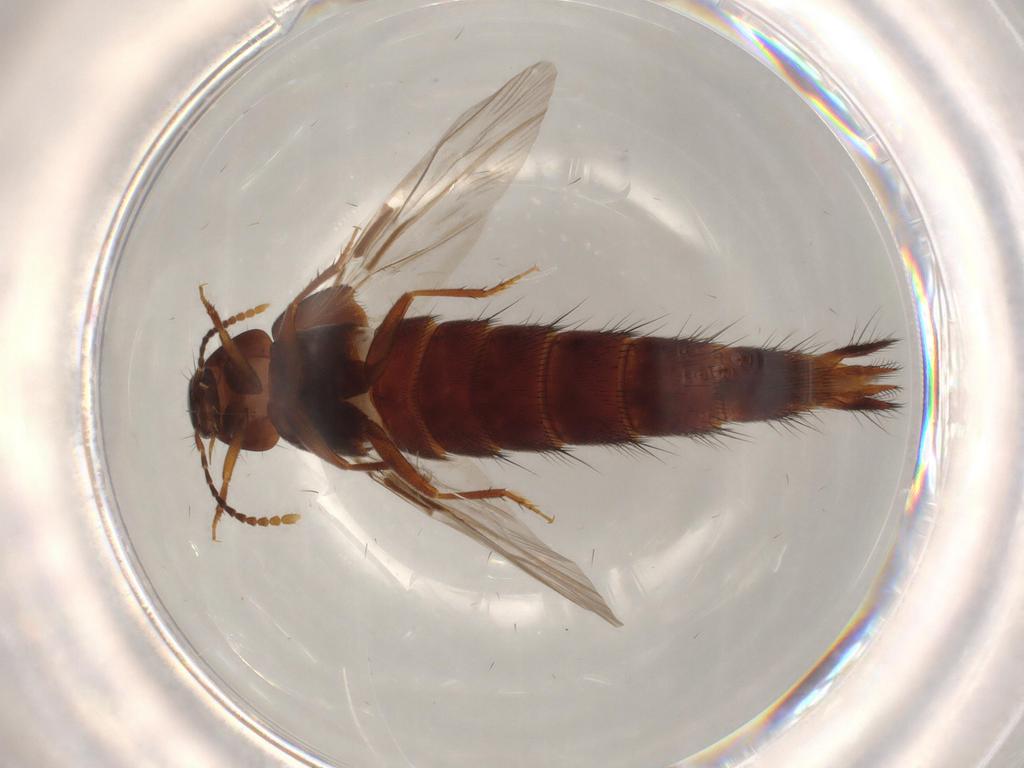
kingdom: Animalia
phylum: Arthropoda
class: Insecta
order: Coleoptera
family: Staphylinidae
